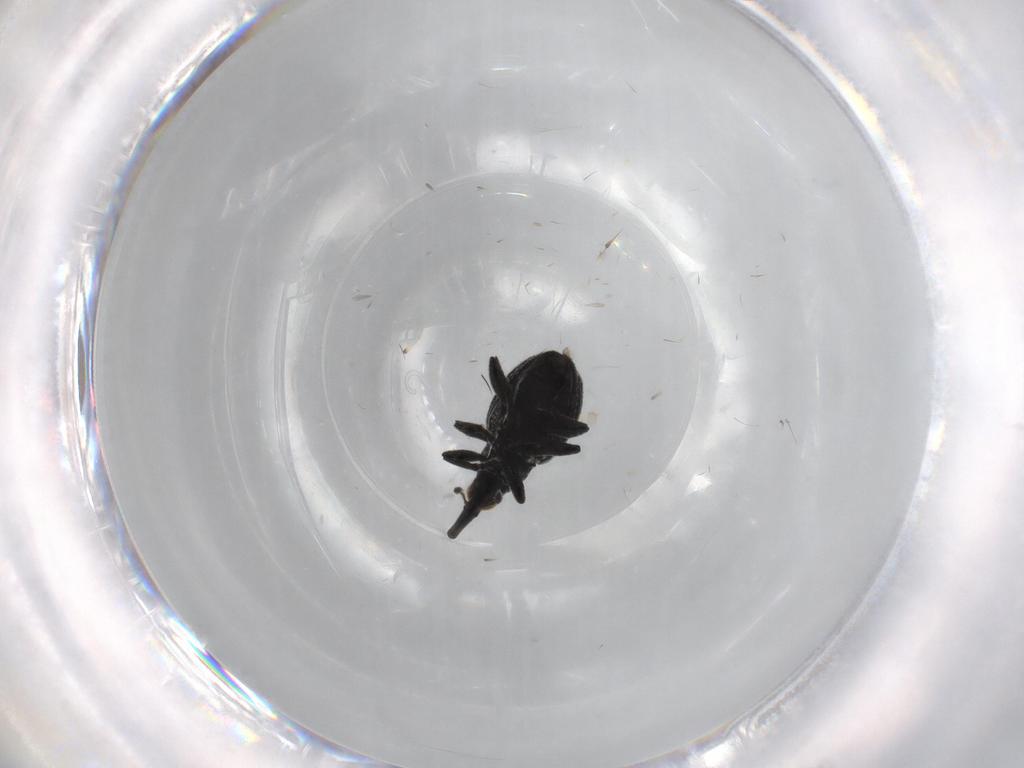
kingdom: Animalia
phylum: Arthropoda
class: Insecta
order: Coleoptera
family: Brentidae
